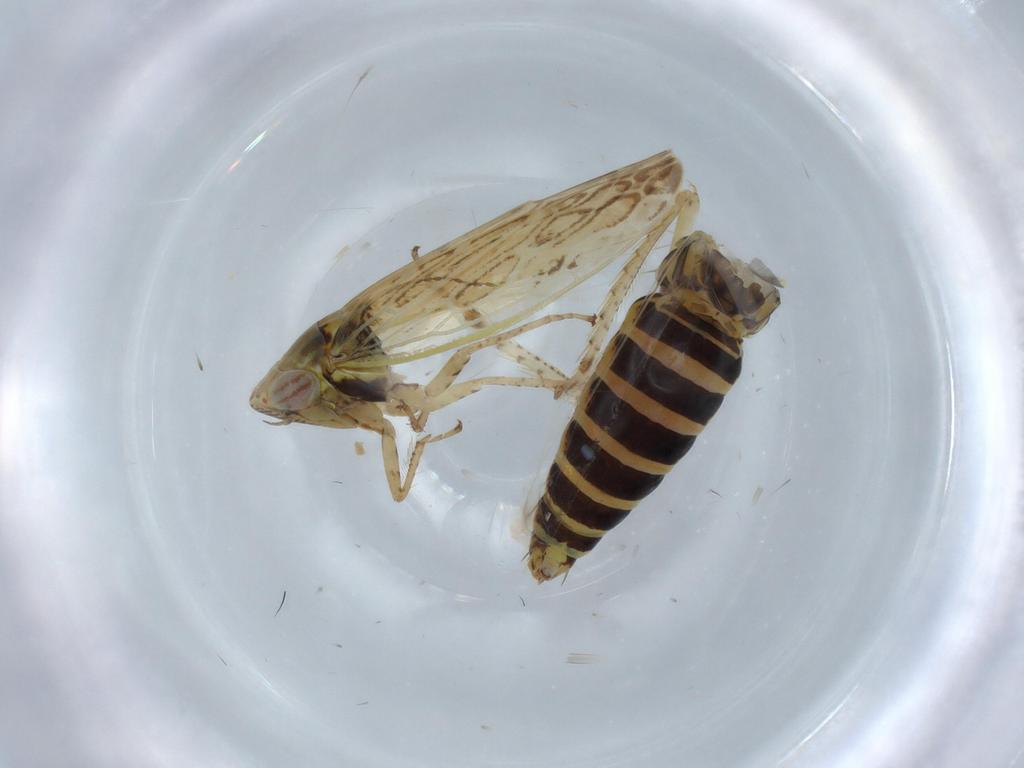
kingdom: Animalia
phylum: Arthropoda
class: Insecta
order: Hemiptera
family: Cicadellidae
